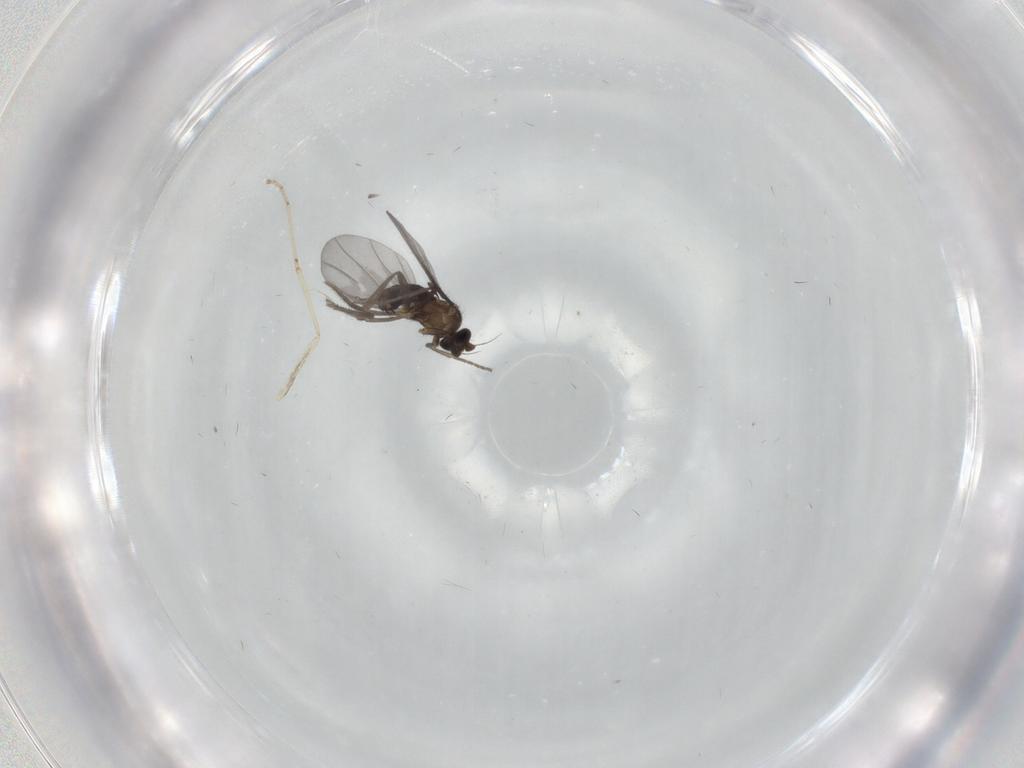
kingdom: Animalia
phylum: Arthropoda
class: Insecta
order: Diptera
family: Phoridae
